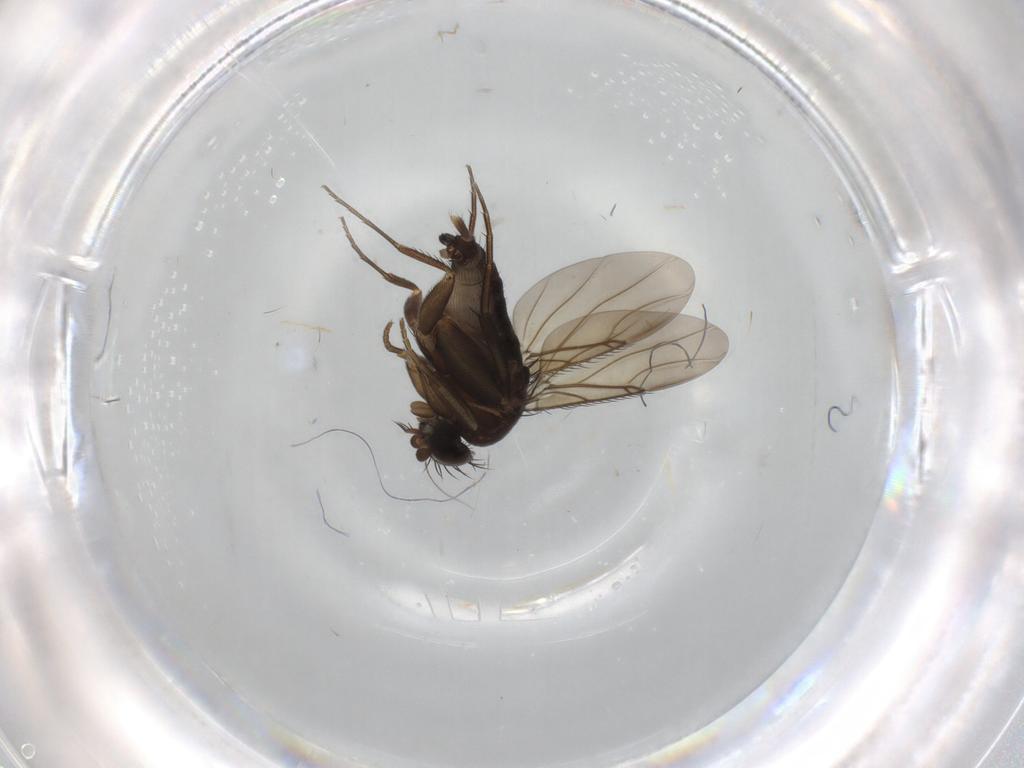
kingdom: Animalia
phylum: Arthropoda
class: Insecta
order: Diptera
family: Phoridae
